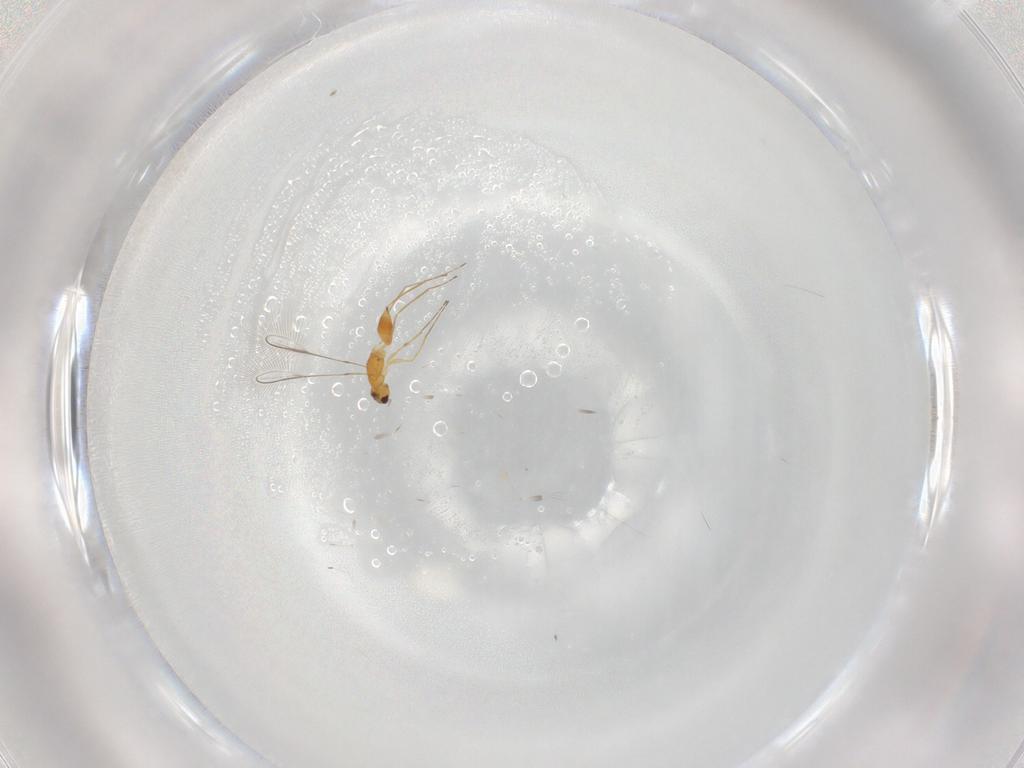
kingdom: Animalia
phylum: Arthropoda
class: Insecta
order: Hymenoptera
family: Mymaridae
